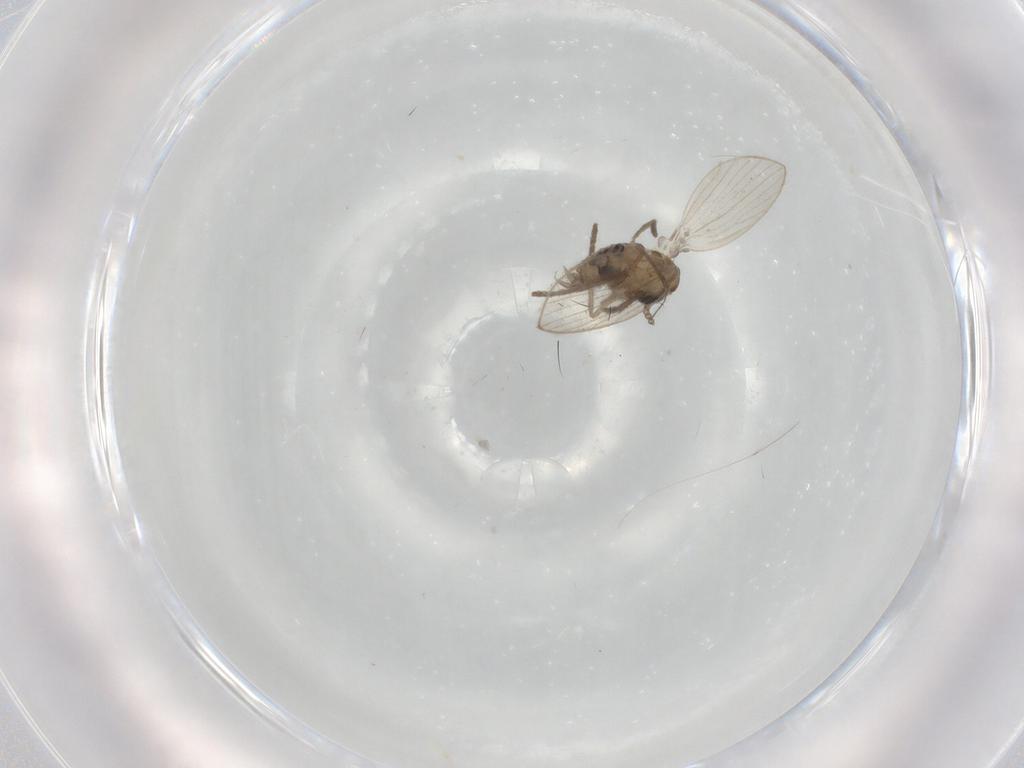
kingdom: Animalia
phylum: Arthropoda
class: Insecta
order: Diptera
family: Psychodidae
